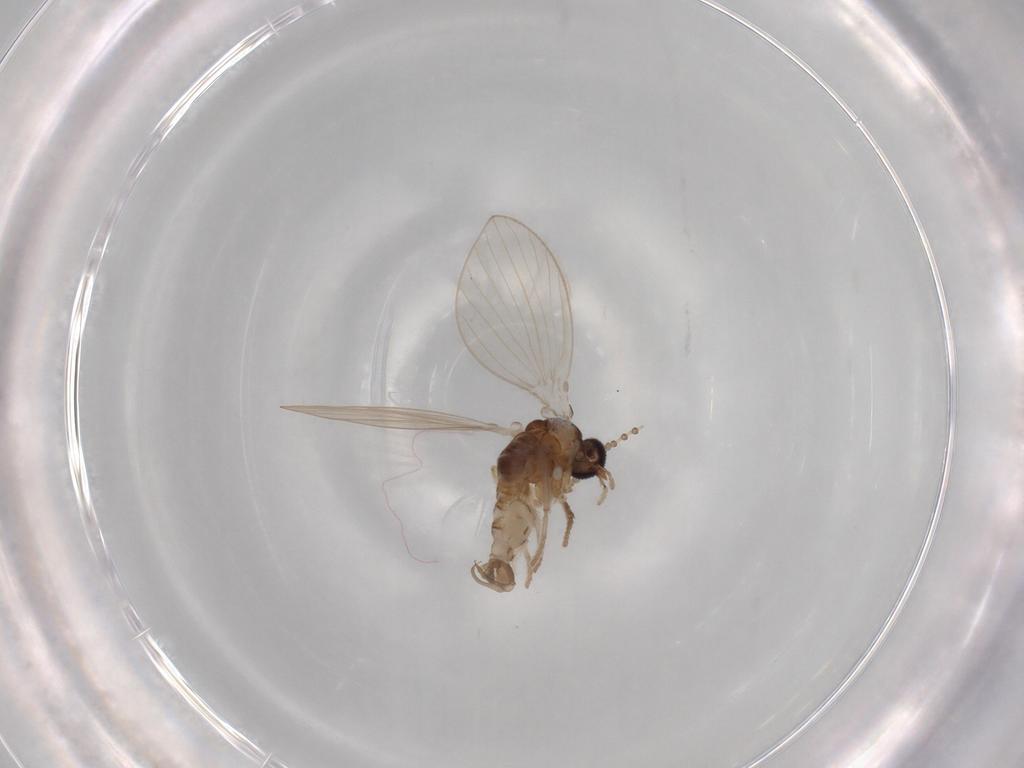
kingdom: Animalia
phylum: Arthropoda
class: Insecta
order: Diptera
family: Psychodidae
